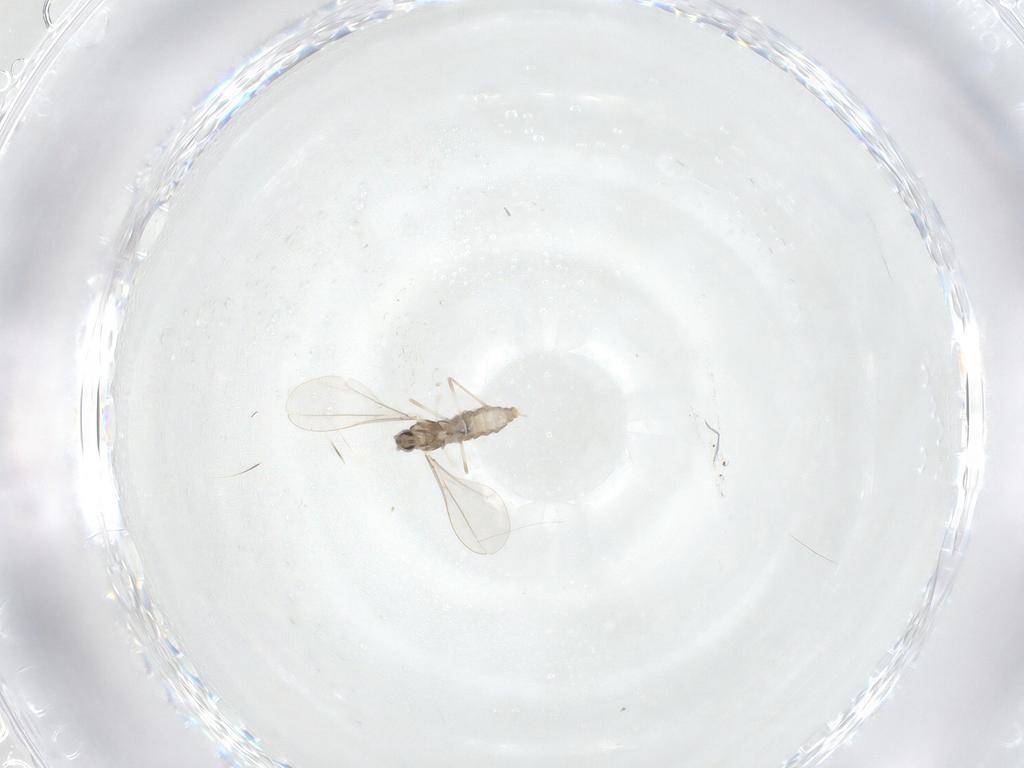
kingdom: Animalia
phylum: Arthropoda
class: Insecta
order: Diptera
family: Cecidomyiidae
